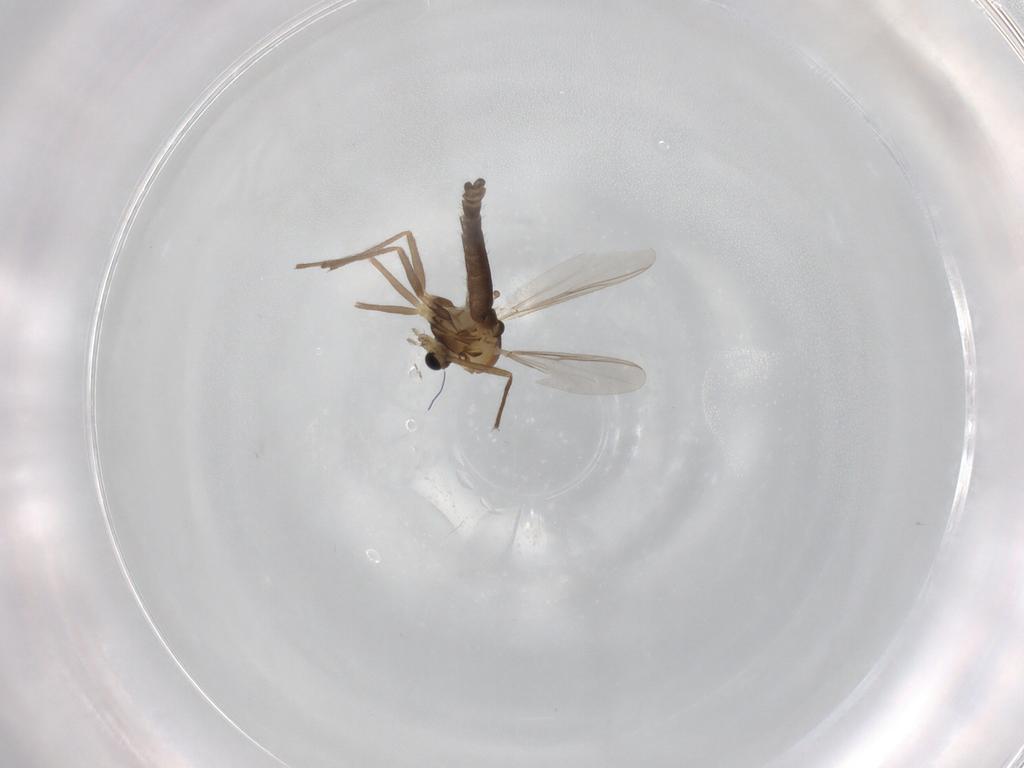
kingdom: Animalia
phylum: Arthropoda
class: Insecta
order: Diptera
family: Chironomidae
